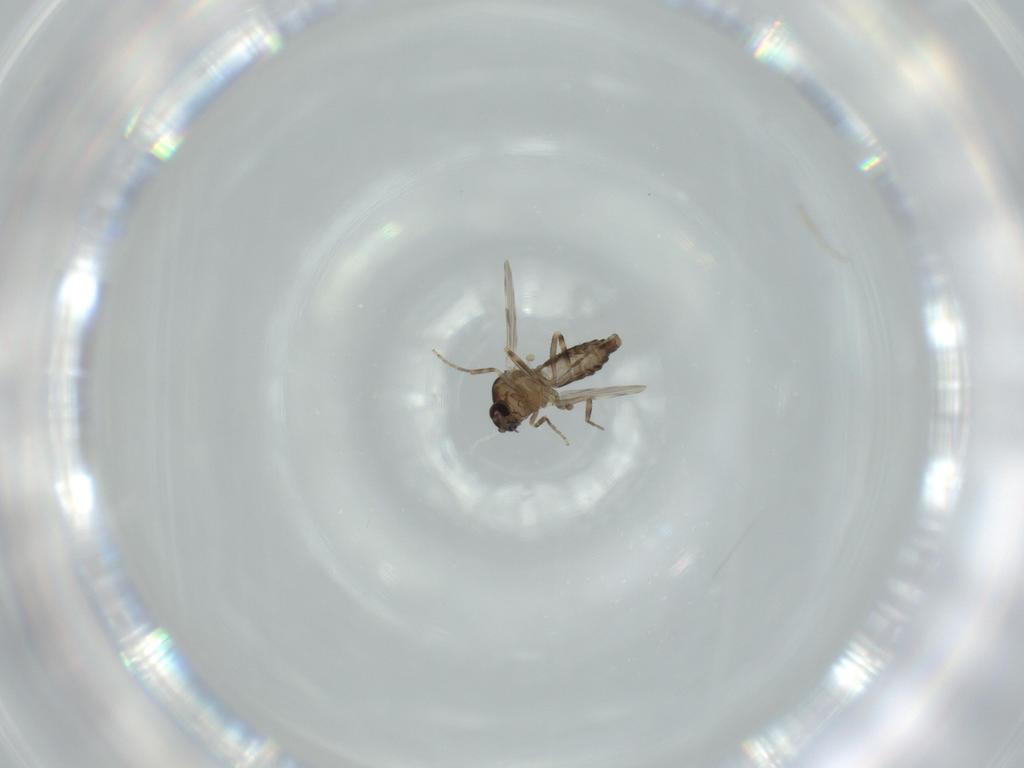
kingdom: Animalia
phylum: Arthropoda
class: Insecta
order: Diptera
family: Ceratopogonidae
